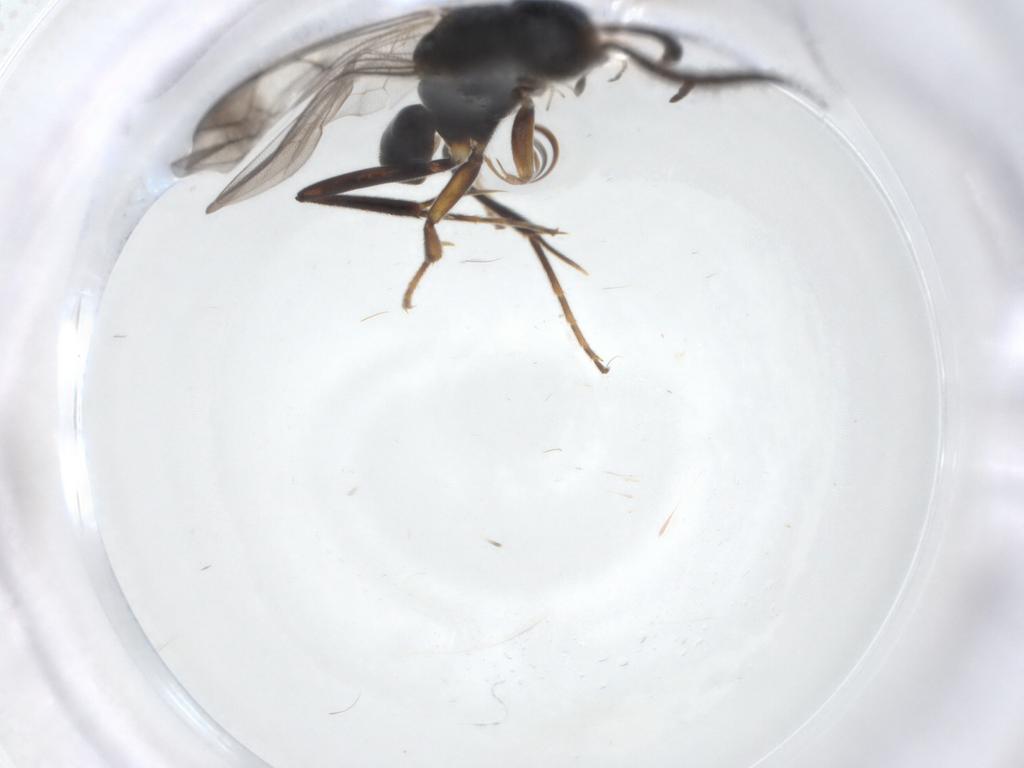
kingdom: Animalia
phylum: Arthropoda
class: Insecta
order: Hymenoptera
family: Pompilidae
